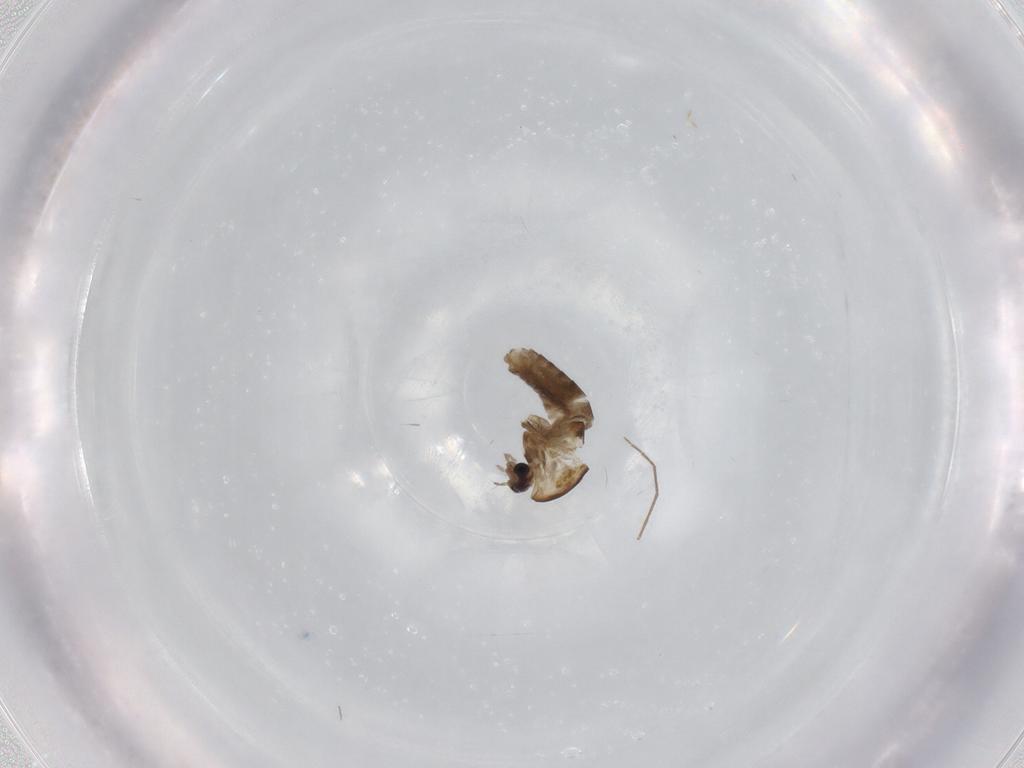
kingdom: Animalia
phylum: Arthropoda
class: Insecta
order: Diptera
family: Chironomidae
